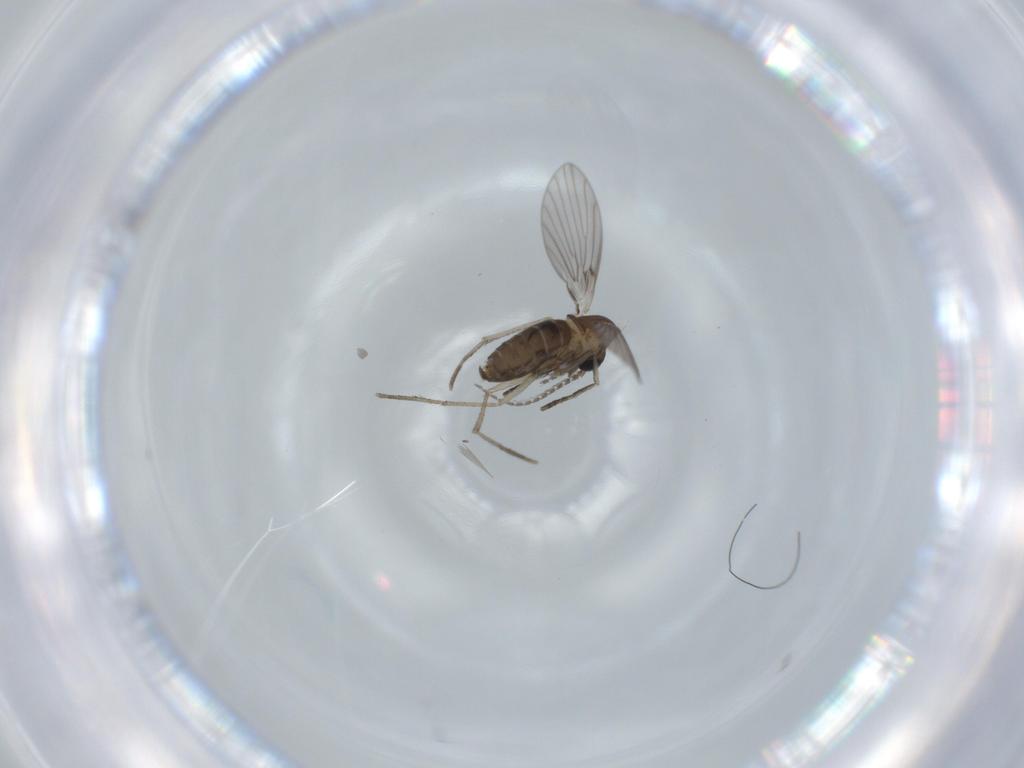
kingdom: Animalia
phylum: Arthropoda
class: Insecta
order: Diptera
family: Psychodidae
